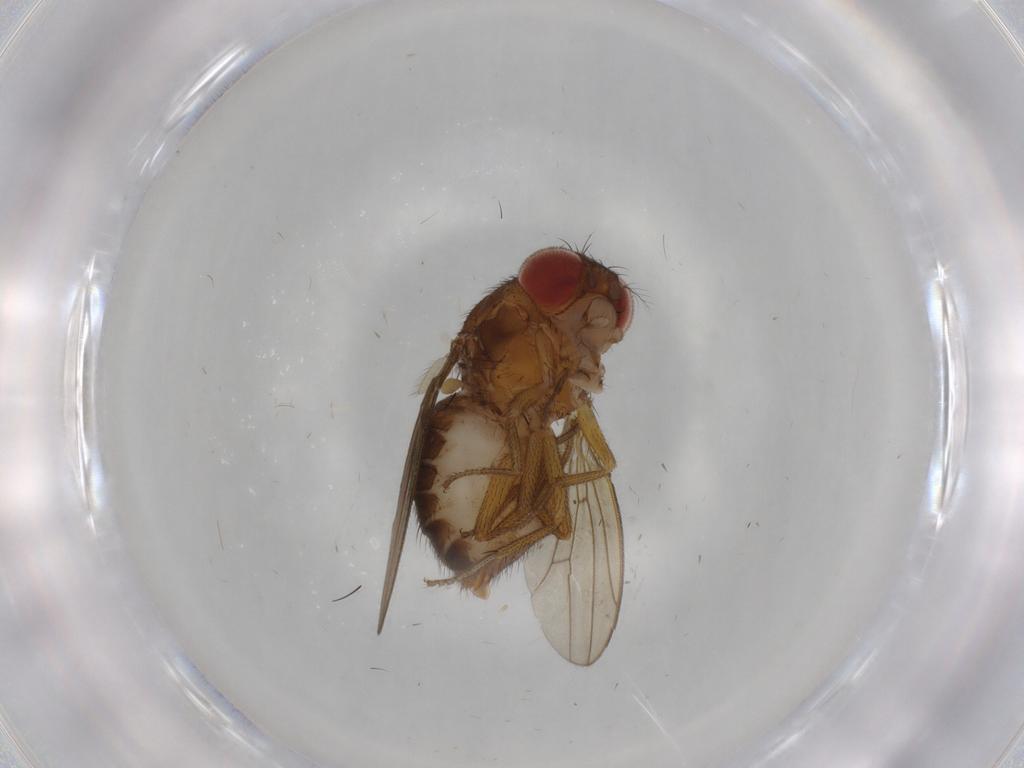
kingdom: Animalia
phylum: Arthropoda
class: Insecta
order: Diptera
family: Drosophilidae
